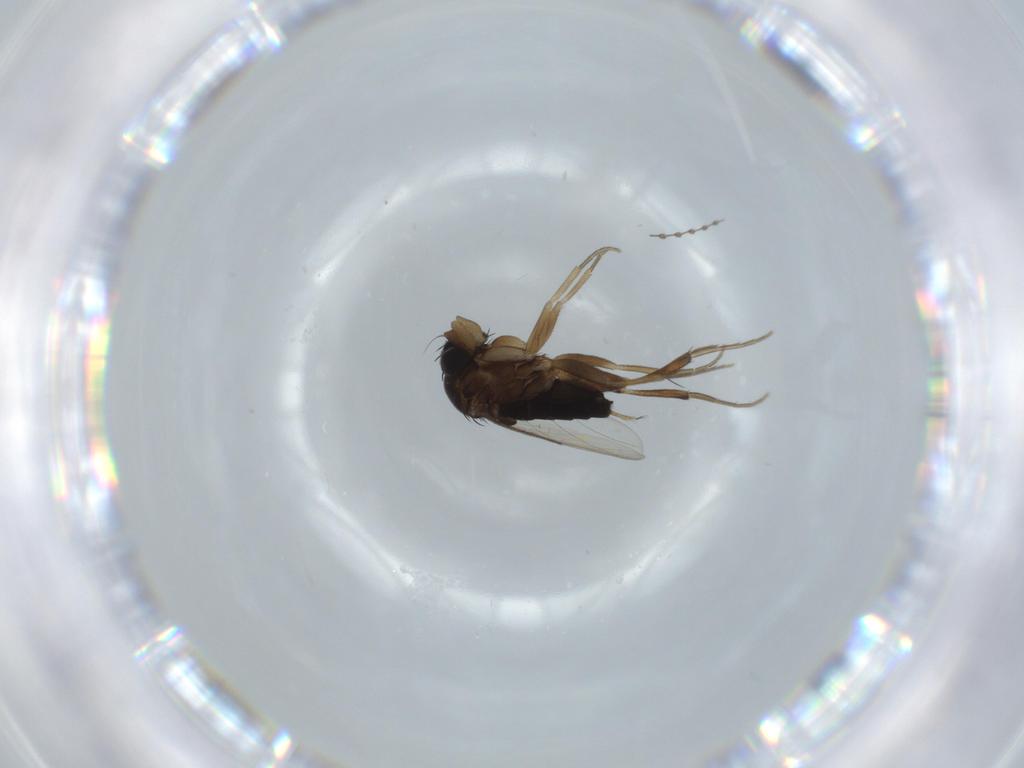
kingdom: Animalia
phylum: Arthropoda
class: Insecta
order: Diptera
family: Phoridae
